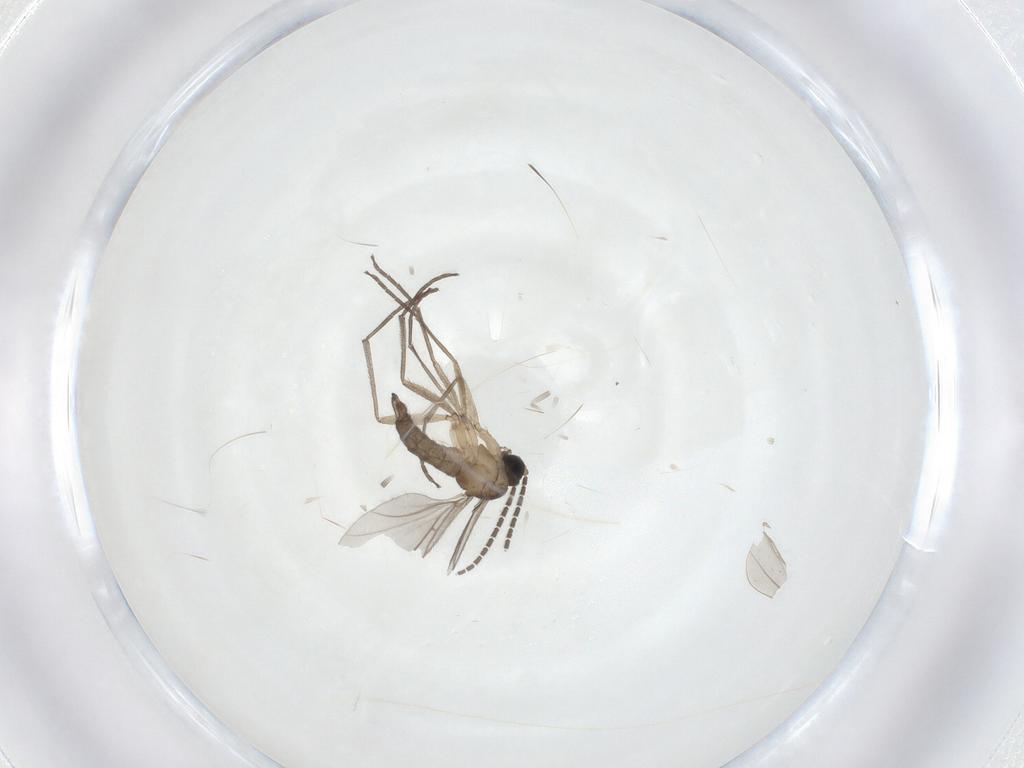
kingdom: Animalia
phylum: Arthropoda
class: Insecta
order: Diptera
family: Chironomidae
